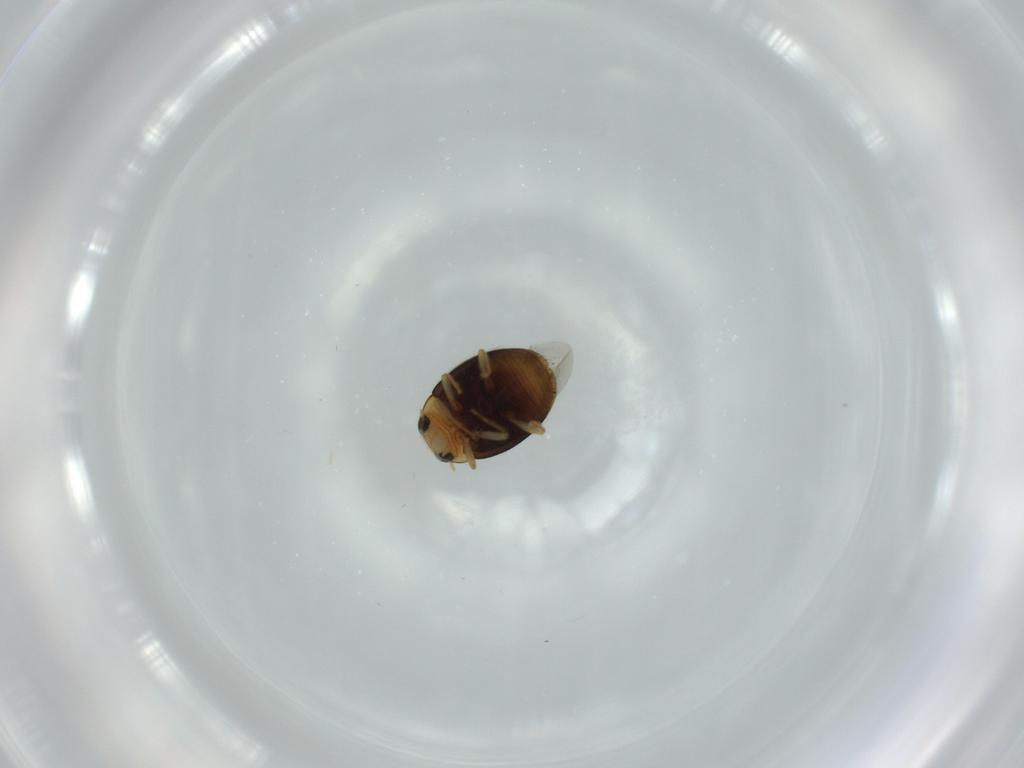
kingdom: Animalia
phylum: Arthropoda
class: Insecta
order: Coleoptera
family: Coccinellidae
